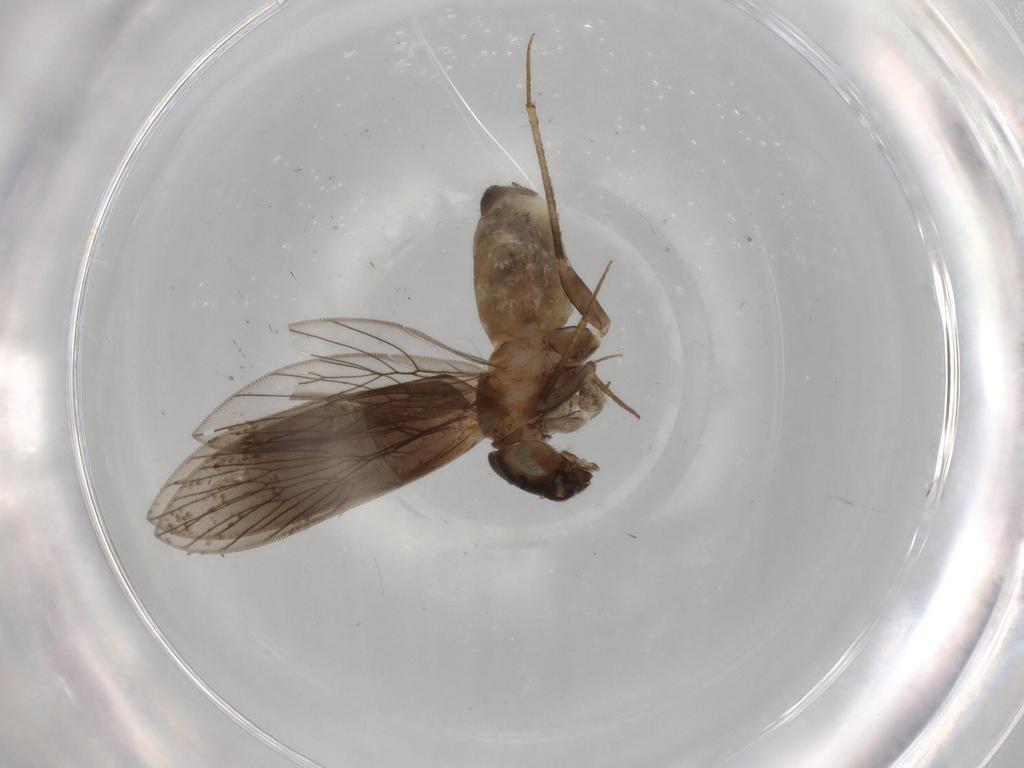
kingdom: Animalia
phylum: Arthropoda
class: Insecta
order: Psocodea
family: Lepidopsocidae
